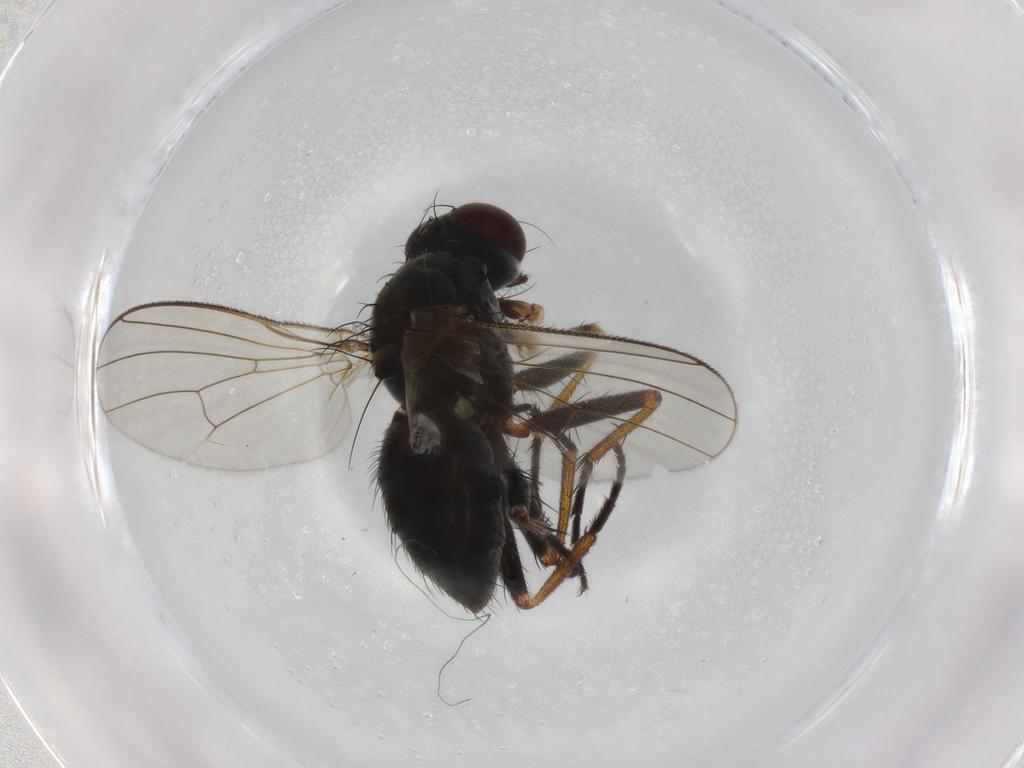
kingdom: Animalia
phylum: Arthropoda
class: Insecta
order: Diptera
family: Muscidae
